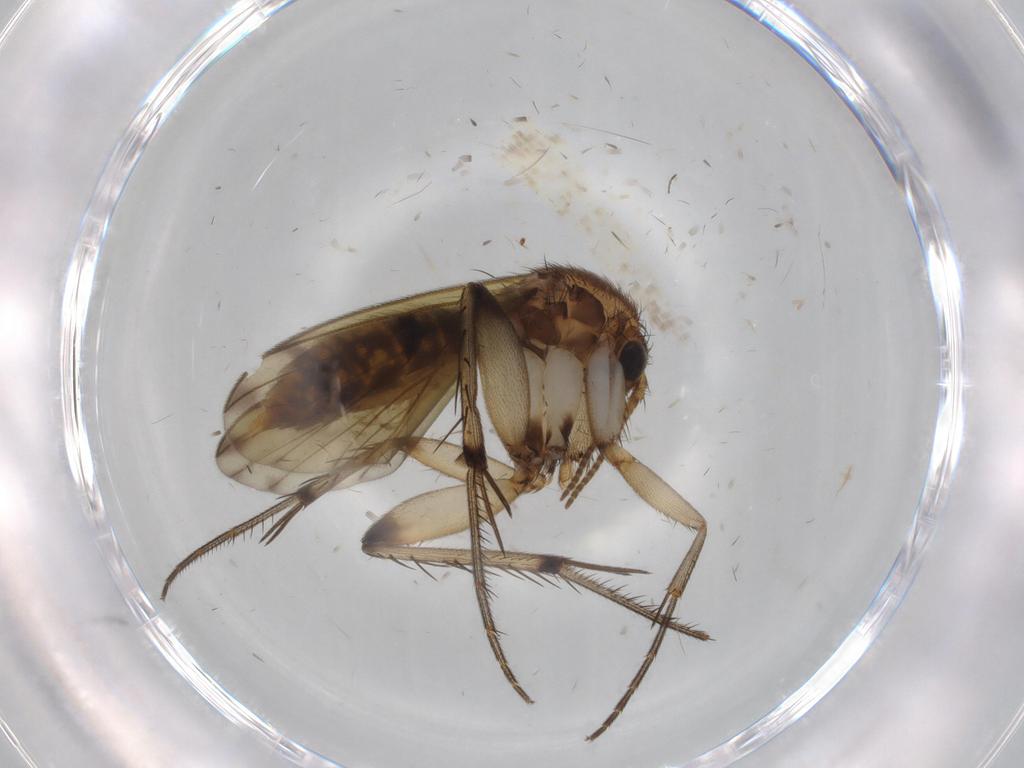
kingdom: Animalia
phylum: Arthropoda
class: Insecta
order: Diptera
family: Mycetophilidae
